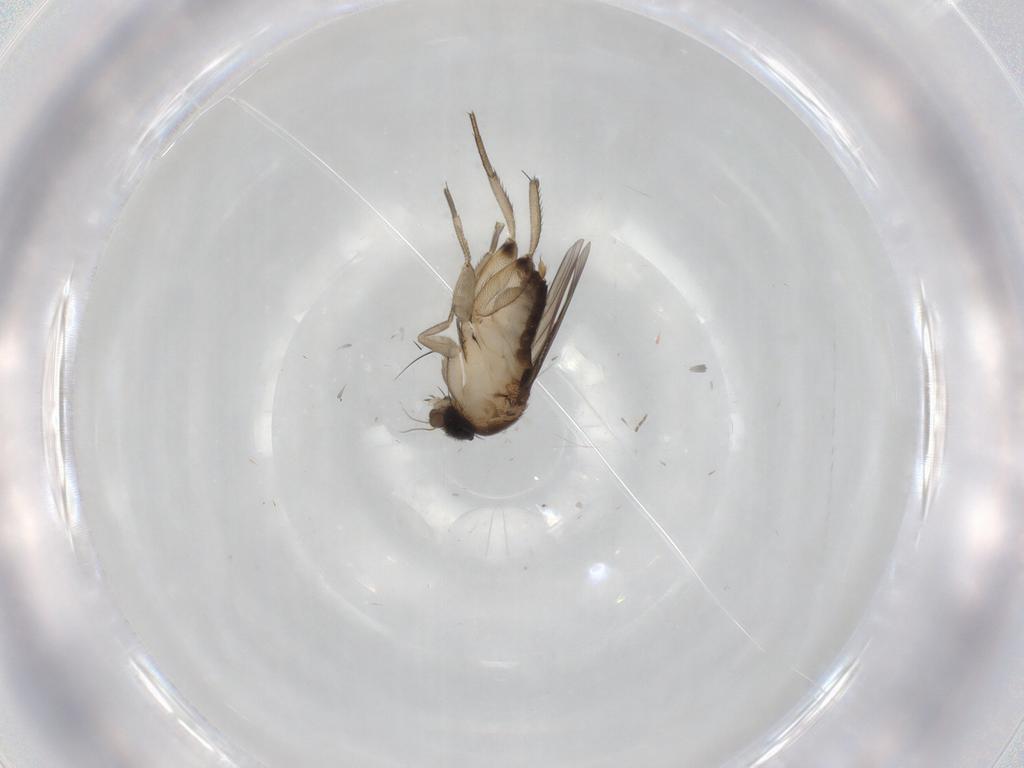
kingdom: Animalia
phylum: Arthropoda
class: Insecta
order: Diptera
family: Phoridae
